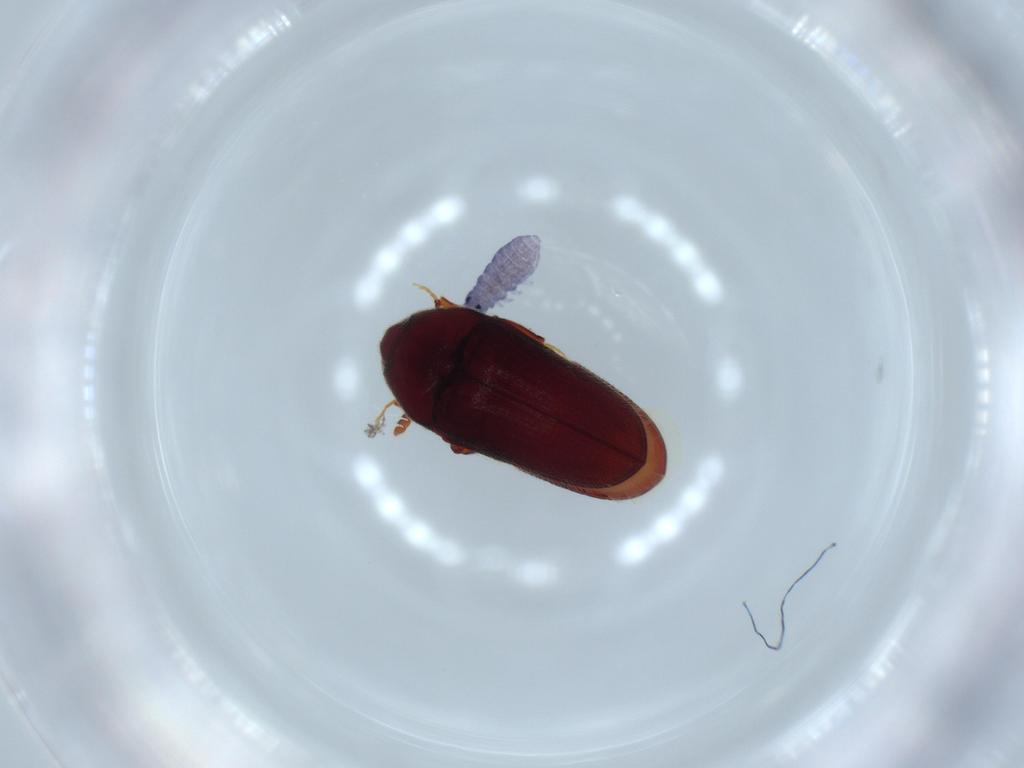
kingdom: Animalia
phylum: Arthropoda
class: Insecta
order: Coleoptera
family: Throscidae
